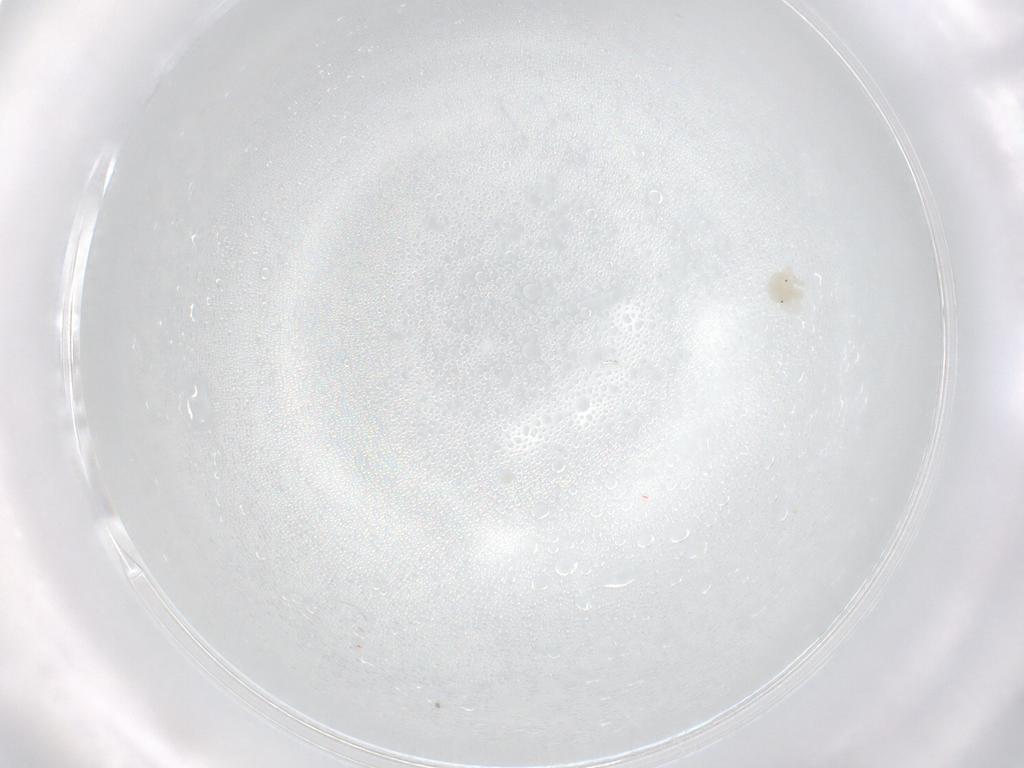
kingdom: Animalia
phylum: Arthropoda
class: Arachnida
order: Trombidiformes
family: Anystidae
